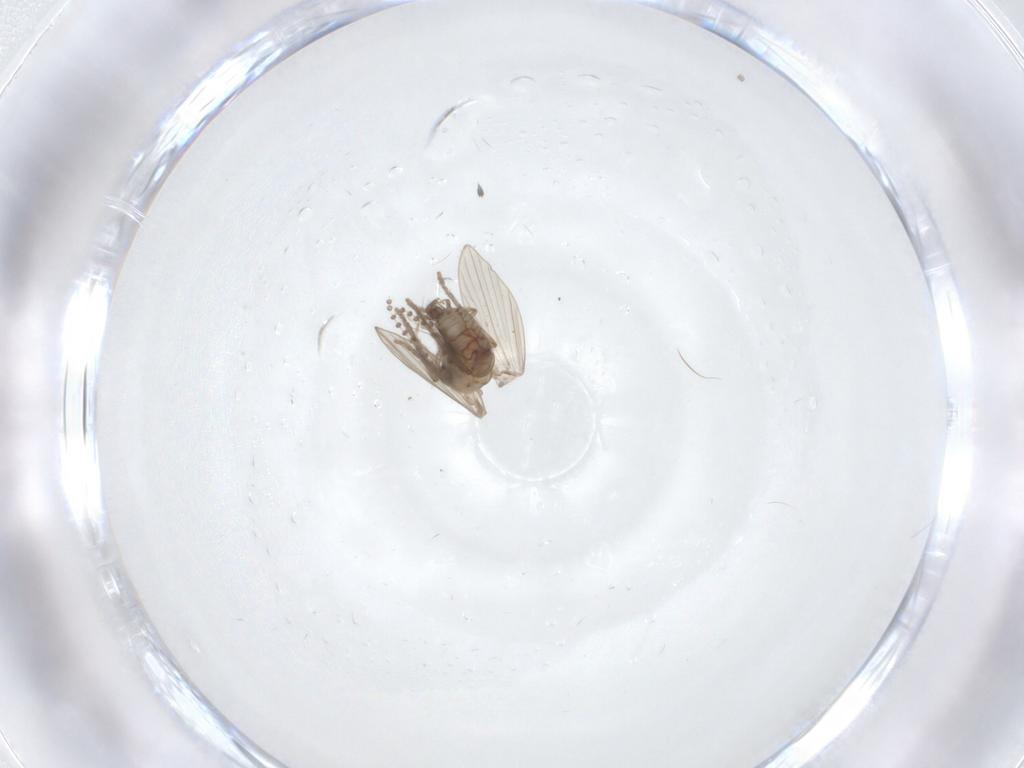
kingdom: Animalia
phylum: Arthropoda
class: Insecta
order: Diptera
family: Psychodidae
